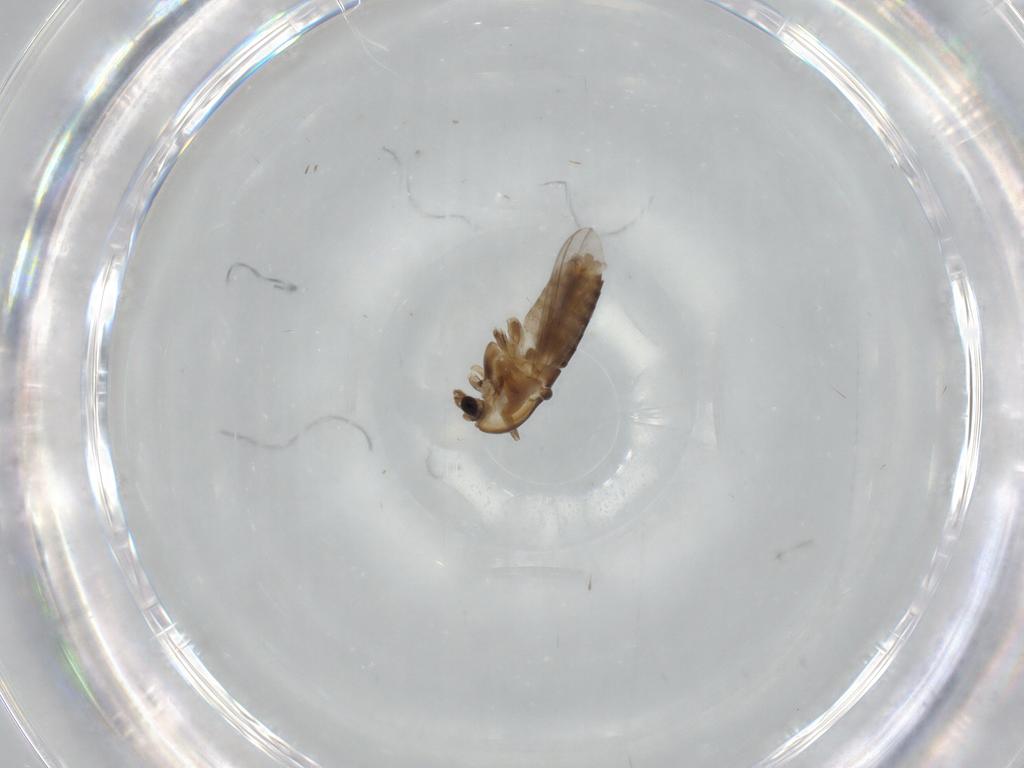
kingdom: Animalia
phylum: Arthropoda
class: Insecta
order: Diptera
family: Chironomidae
